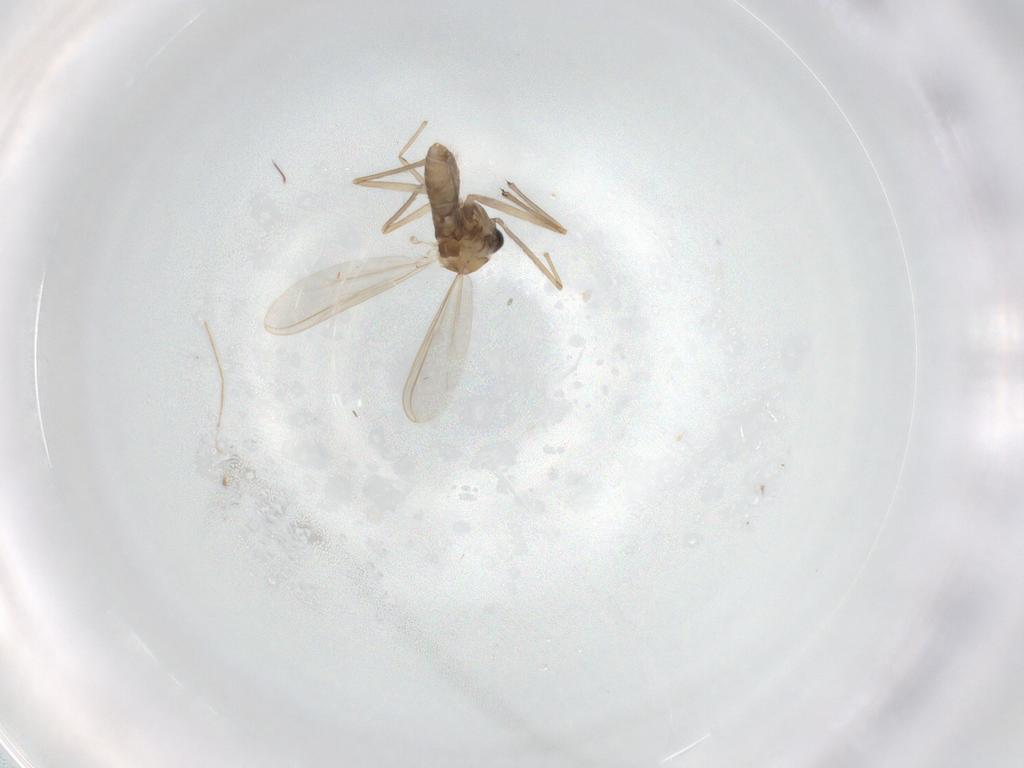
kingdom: Animalia
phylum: Arthropoda
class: Insecta
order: Diptera
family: Chironomidae
